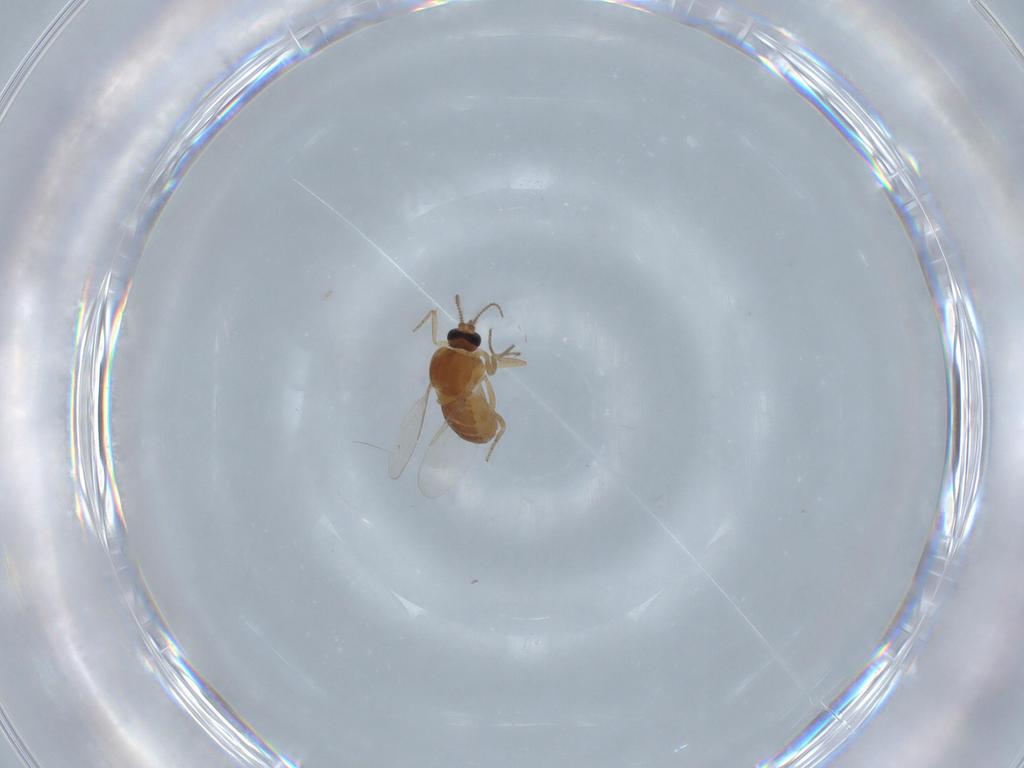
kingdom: Animalia
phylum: Arthropoda
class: Insecta
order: Diptera
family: Ceratopogonidae
